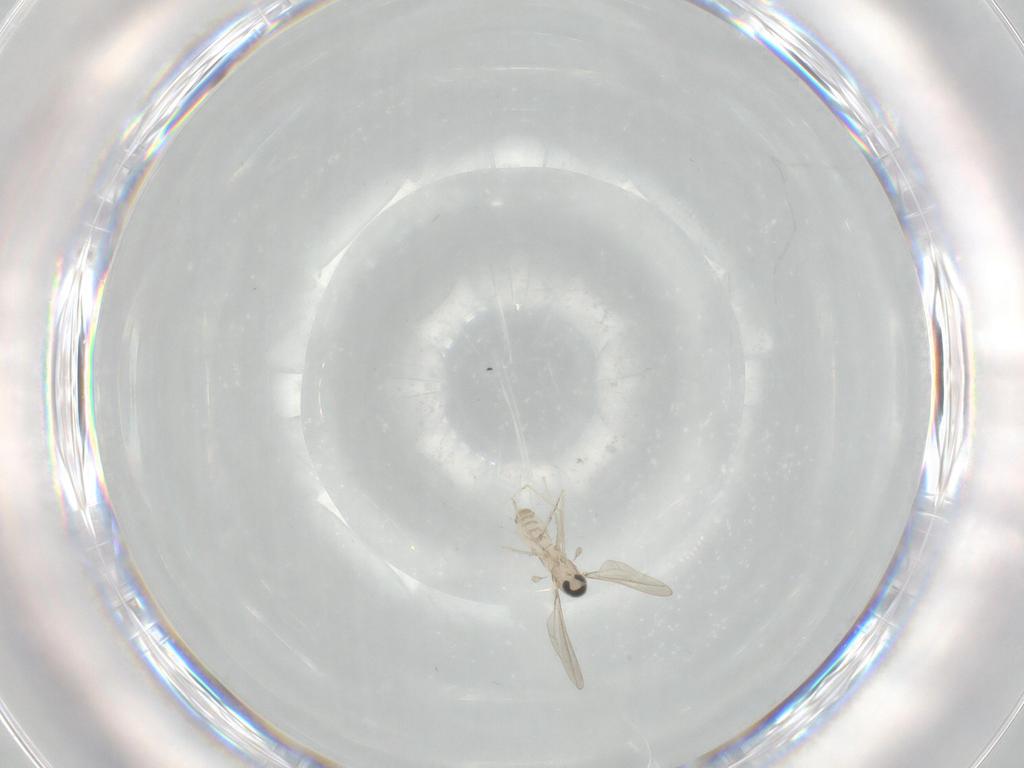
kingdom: Animalia
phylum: Arthropoda
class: Insecta
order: Diptera
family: Cecidomyiidae
